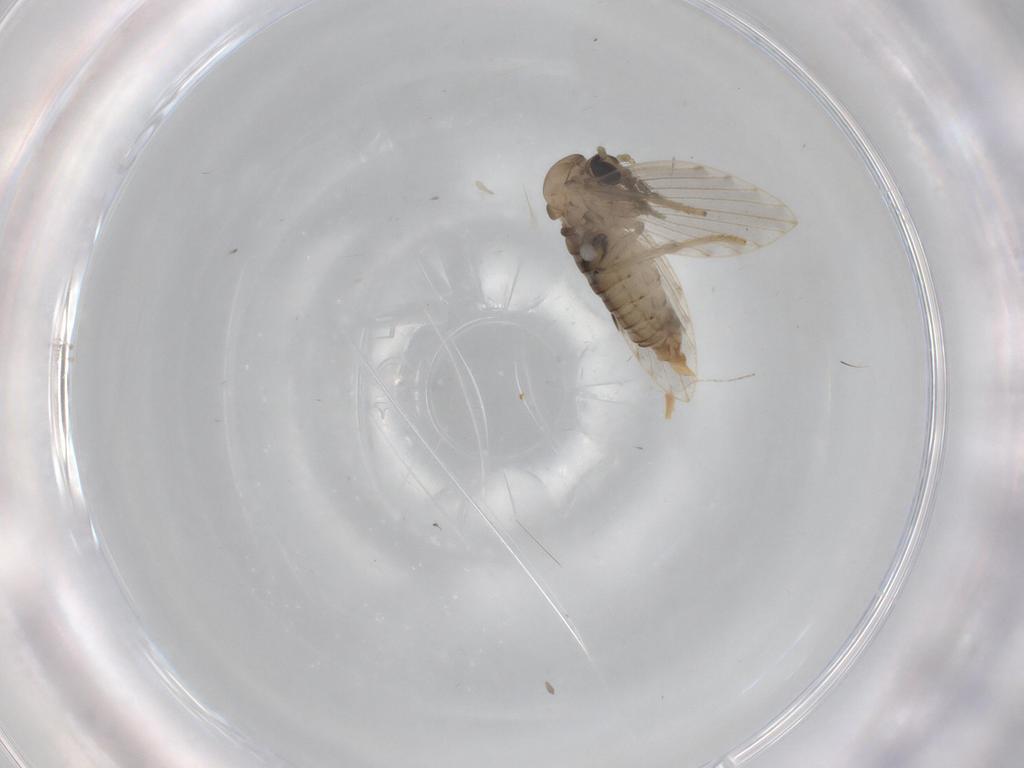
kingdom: Animalia
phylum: Arthropoda
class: Insecta
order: Diptera
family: Psychodidae
